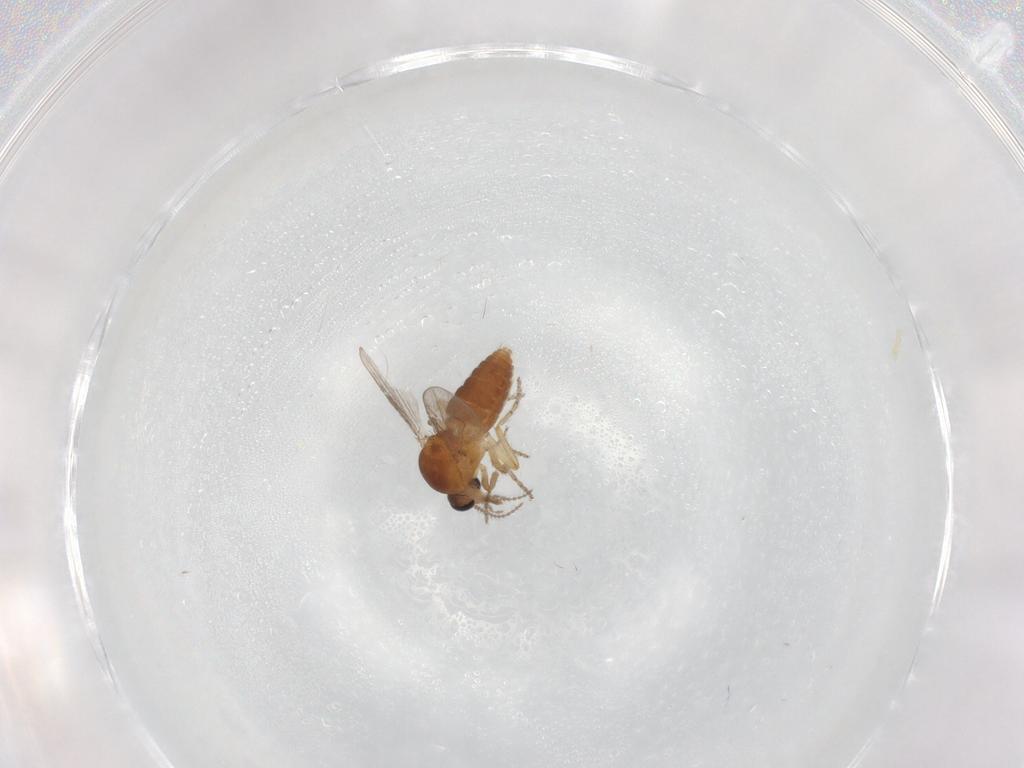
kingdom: Animalia
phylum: Arthropoda
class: Insecta
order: Diptera
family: Ceratopogonidae
